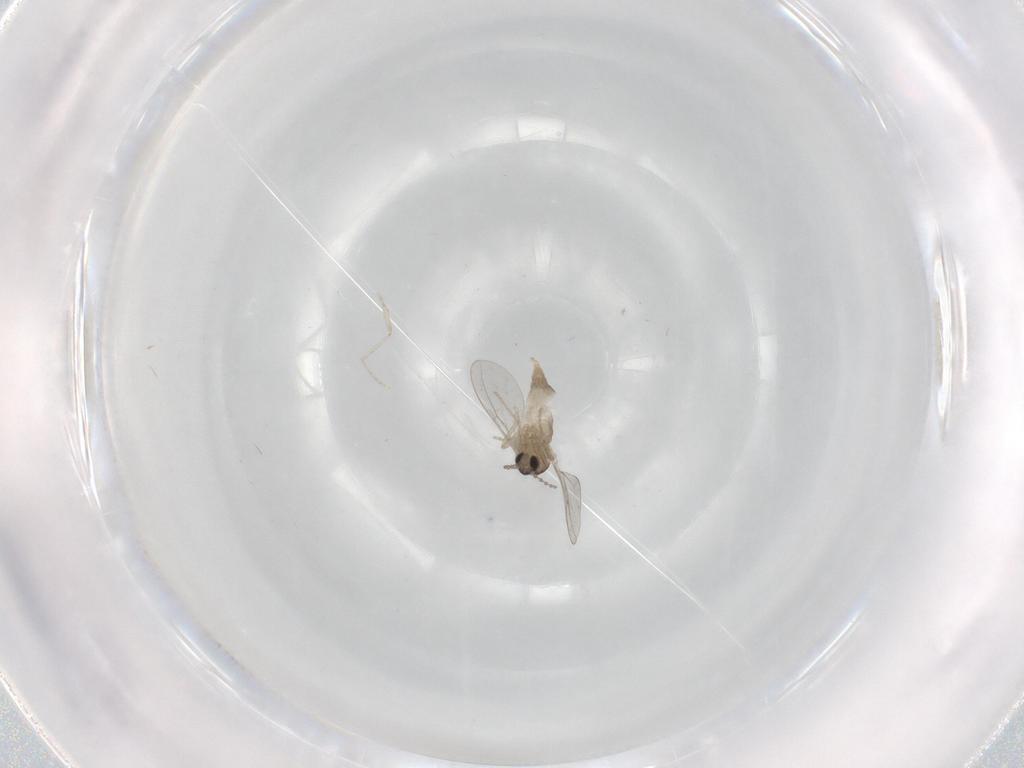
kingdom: Animalia
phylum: Arthropoda
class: Insecta
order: Diptera
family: Cecidomyiidae
